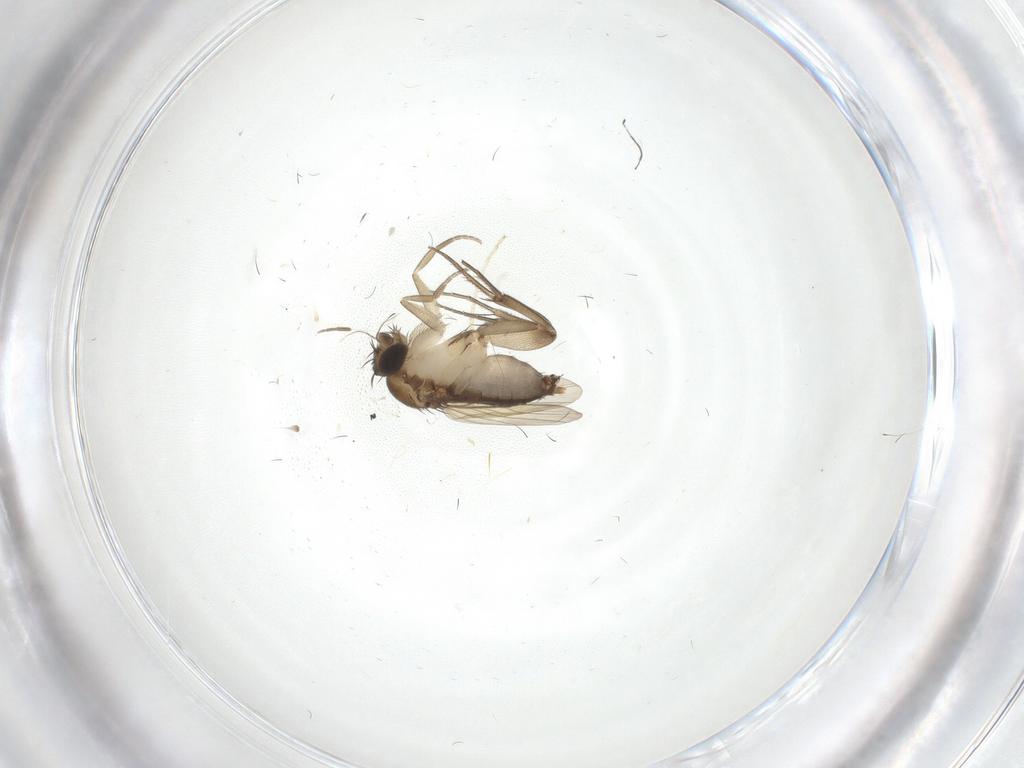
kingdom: Animalia
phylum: Arthropoda
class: Insecta
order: Diptera
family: Phoridae
